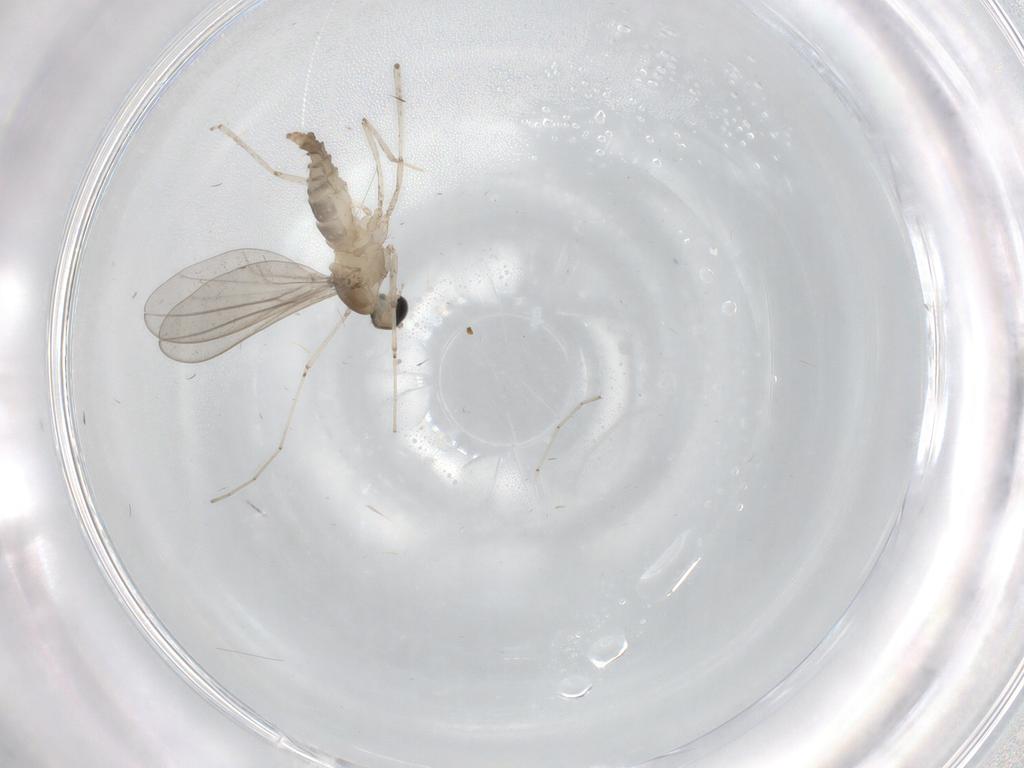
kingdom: Animalia
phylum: Arthropoda
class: Insecta
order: Diptera
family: Cecidomyiidae
